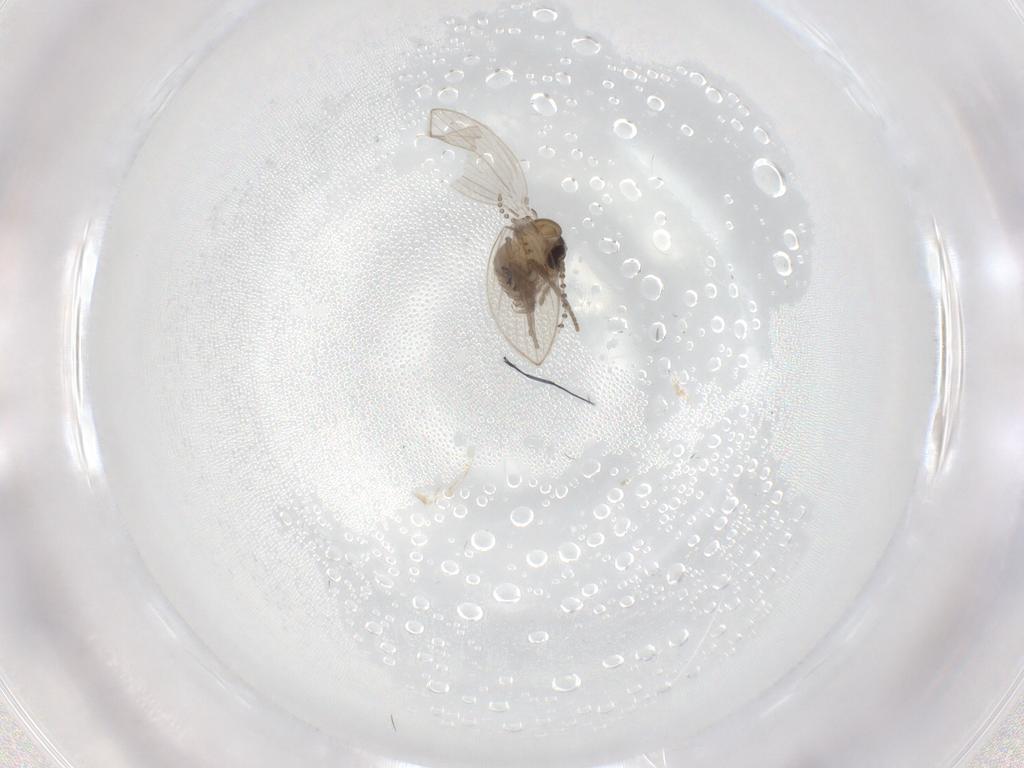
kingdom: Animalia
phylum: Arthropoda
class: Insecta
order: Diptera
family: Psychodidae
